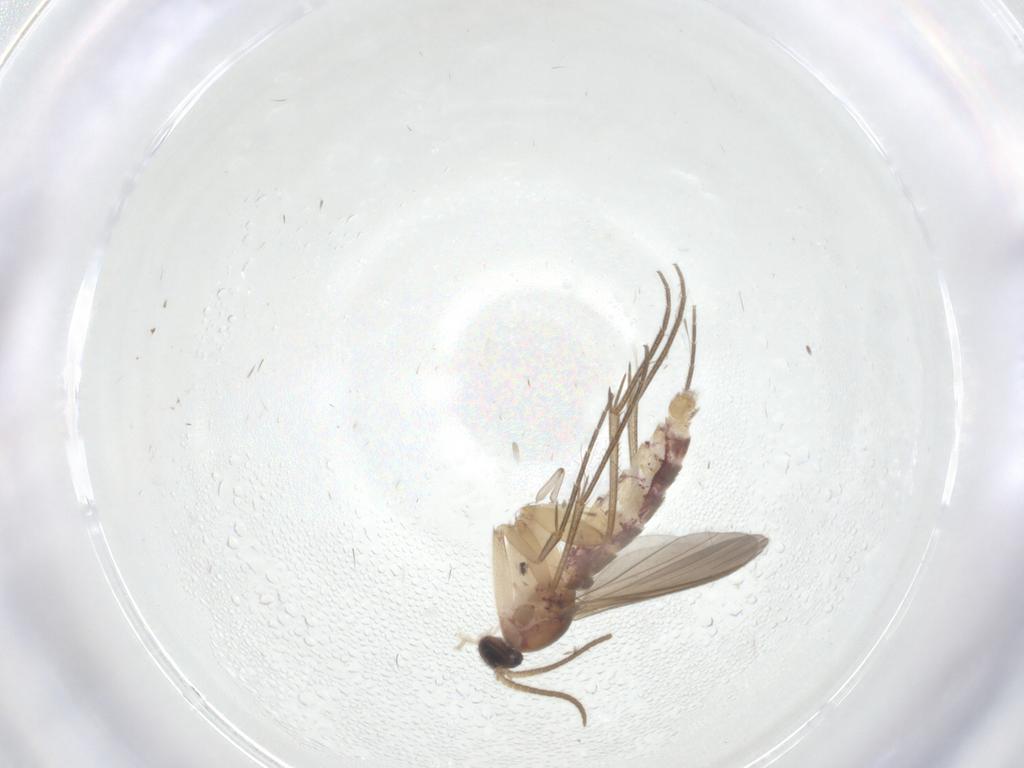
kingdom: Animalia
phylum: Arthropoda
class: Insecta
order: Diptera
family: Psychodidae
